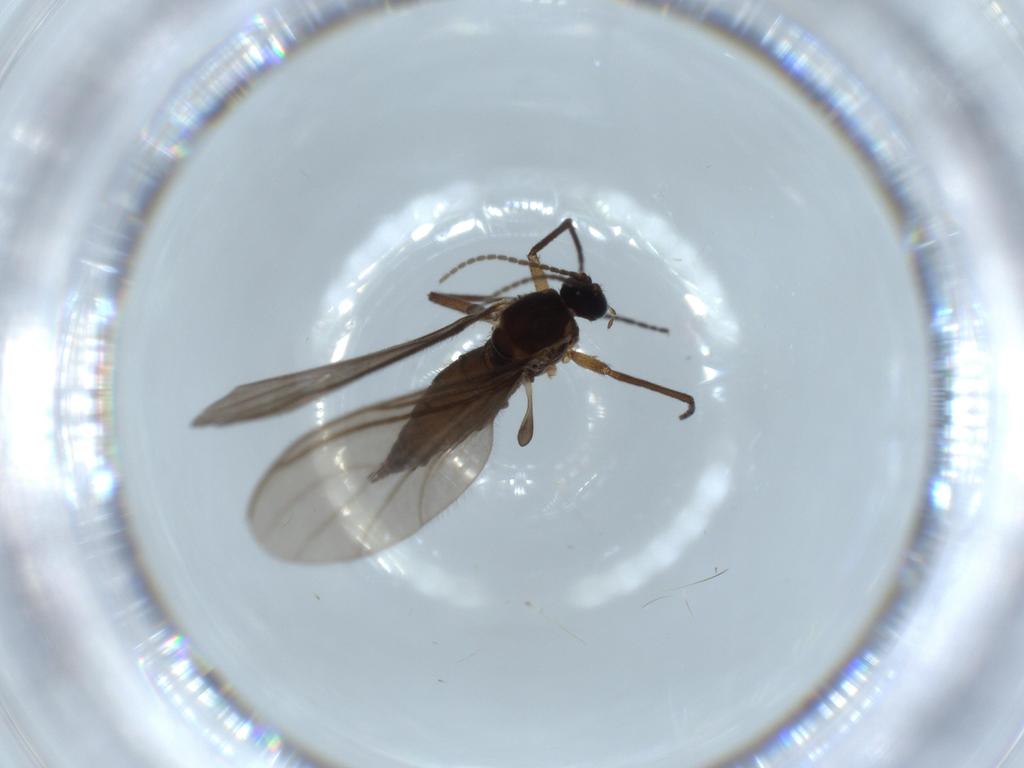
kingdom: Animalia
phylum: Arthropoda
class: Insecta
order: Diptera
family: Sciaridae
